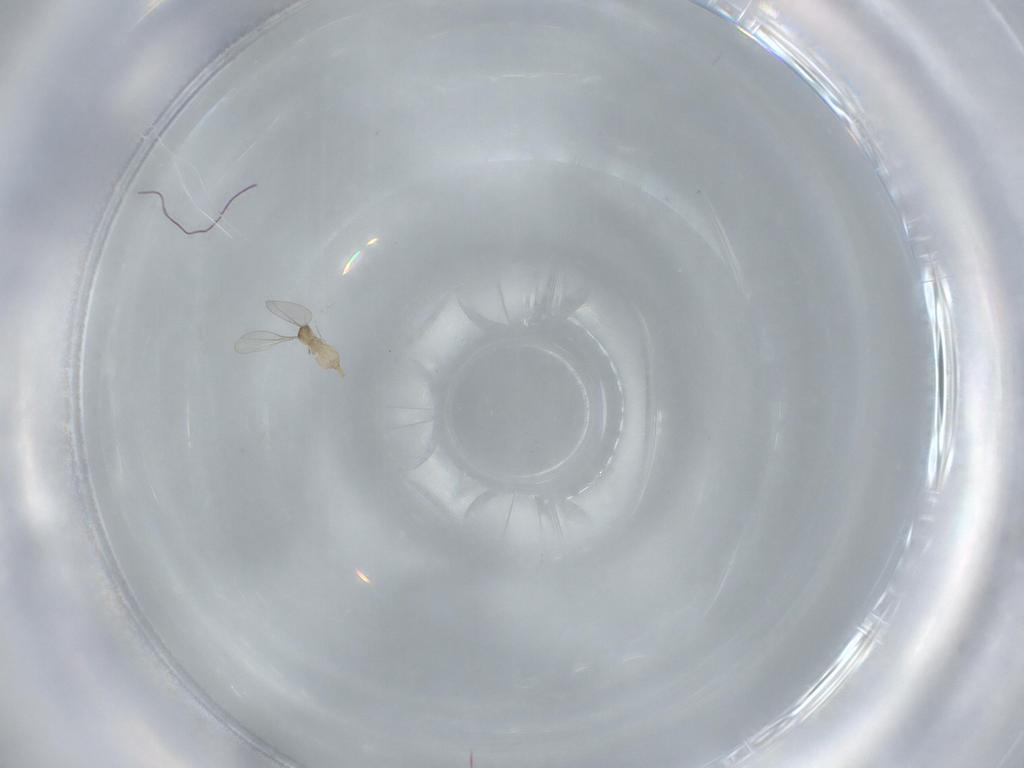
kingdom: Animalia
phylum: Arthropoda
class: Insecta
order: Diptera
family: Cecidomyiidae
